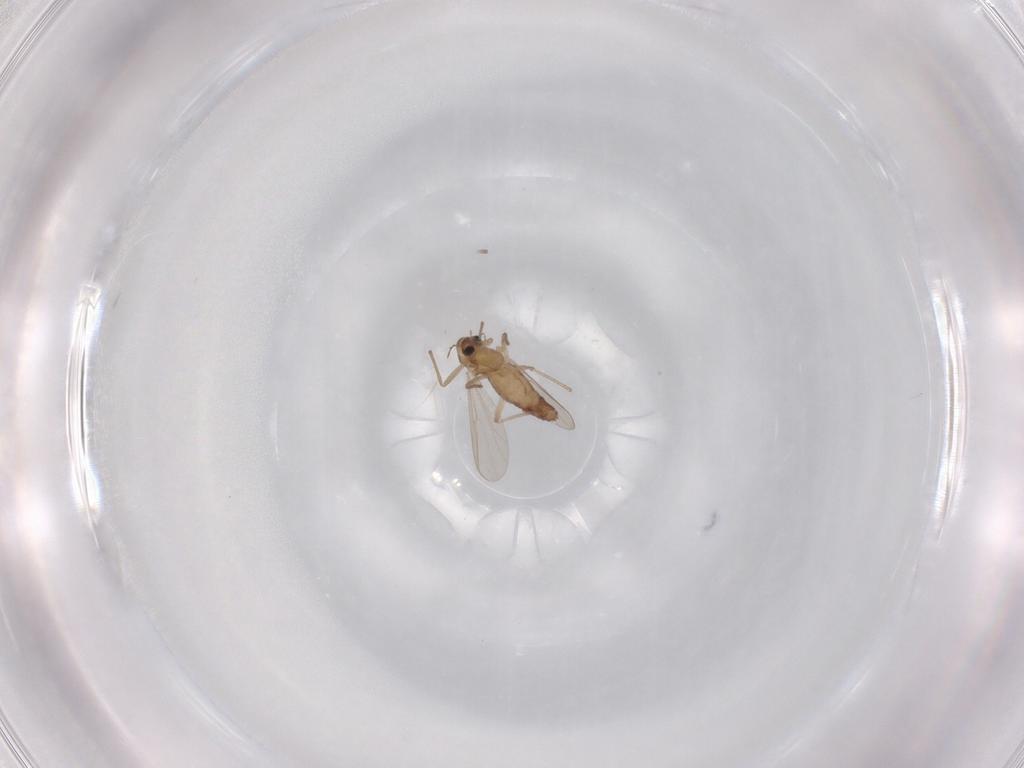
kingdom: Animalia
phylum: Arthropoda
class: Insecta
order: Diptera
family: Chironomidae
